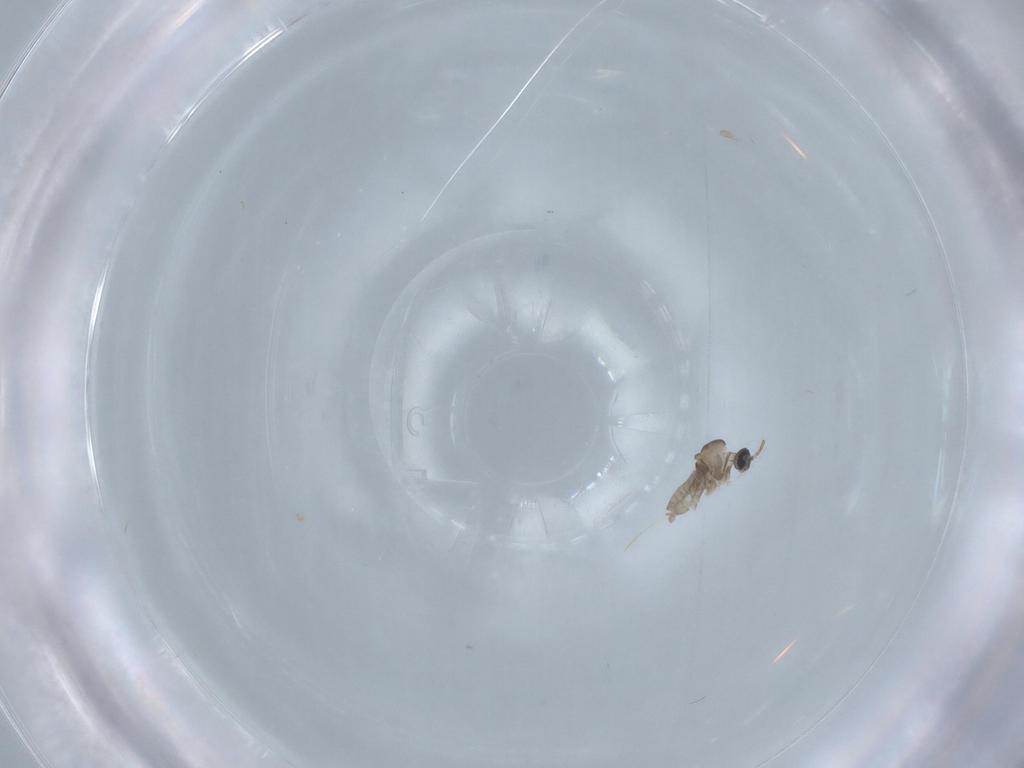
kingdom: Animalia
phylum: Arthropoda
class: Insecta
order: Diptera
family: Cecidomyiidae
